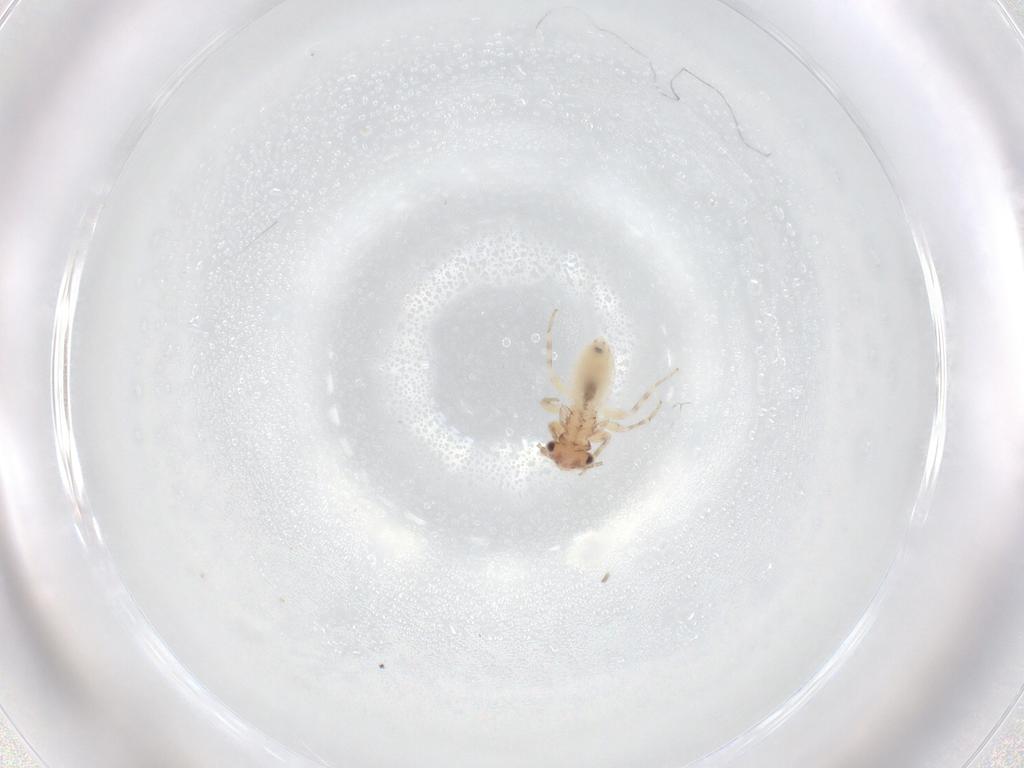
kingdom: Animalia
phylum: Arthropoda
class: Insecta
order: Psocodea
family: Lepidopsocidae
